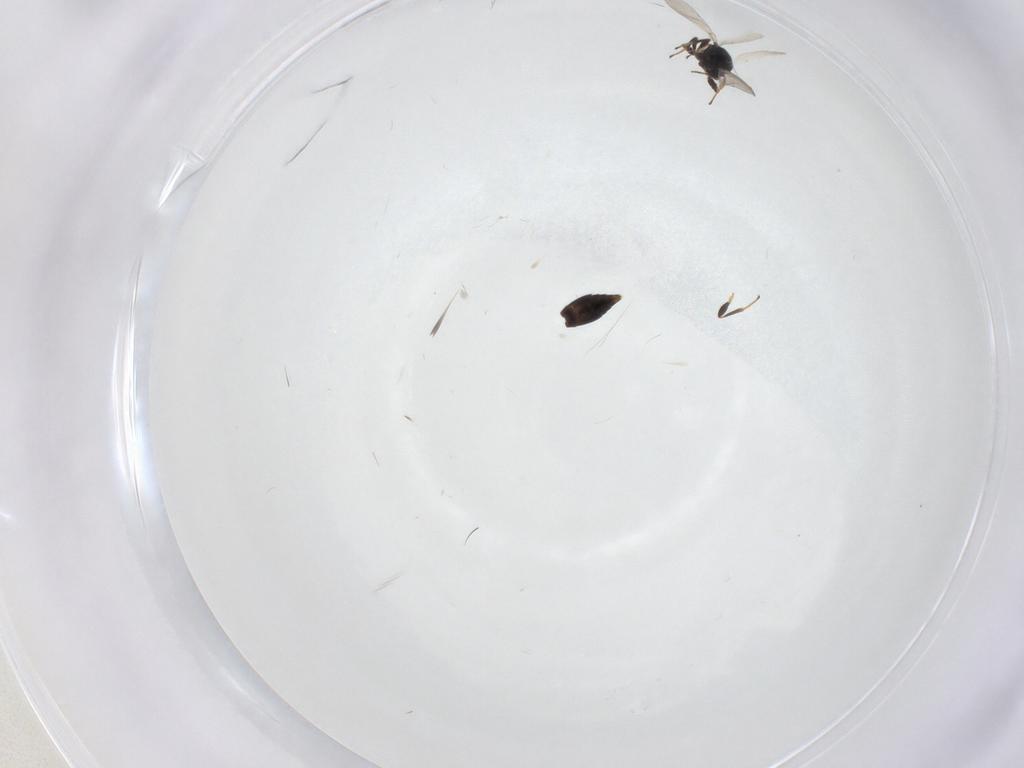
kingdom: Animalia
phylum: Arthropoda
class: Insecta
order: Hymenoptera
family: Platygastridae
